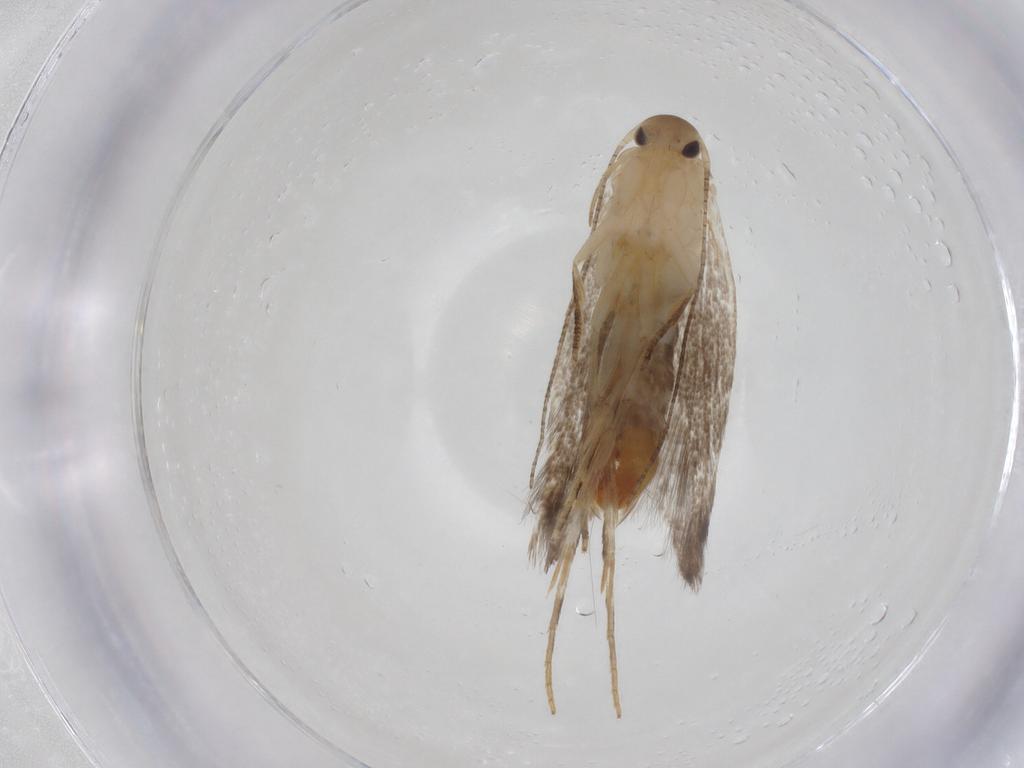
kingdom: Animalia
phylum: Arthropoda
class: Insecta
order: Lepidoptera
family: Elachistidae
